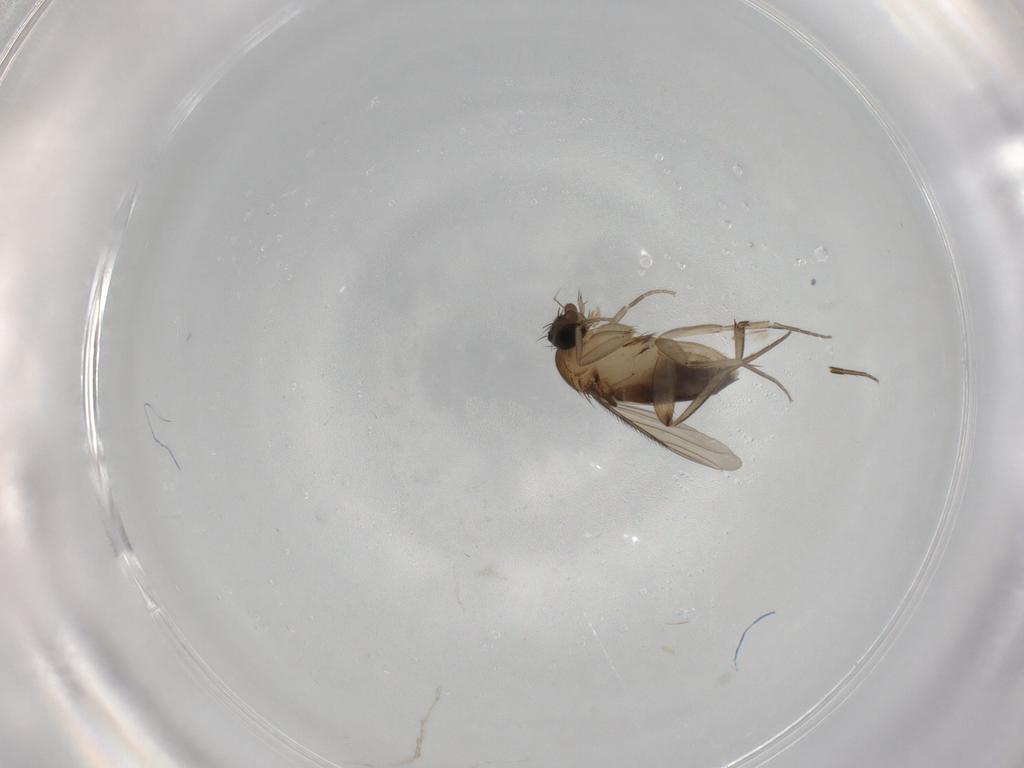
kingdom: Animalia
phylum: Arthropoda
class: Insecta
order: Diptera
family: Phoridae
